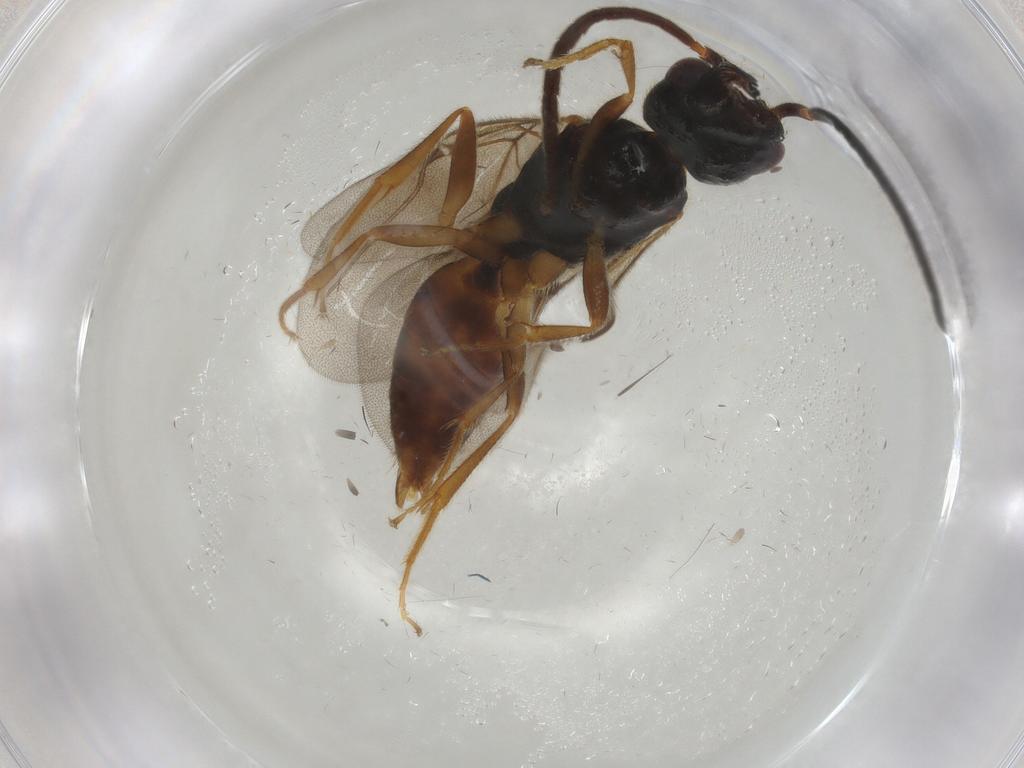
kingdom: Animalia
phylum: Arthropoda
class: Insecta
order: Hymenoptera
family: Bethylidae
